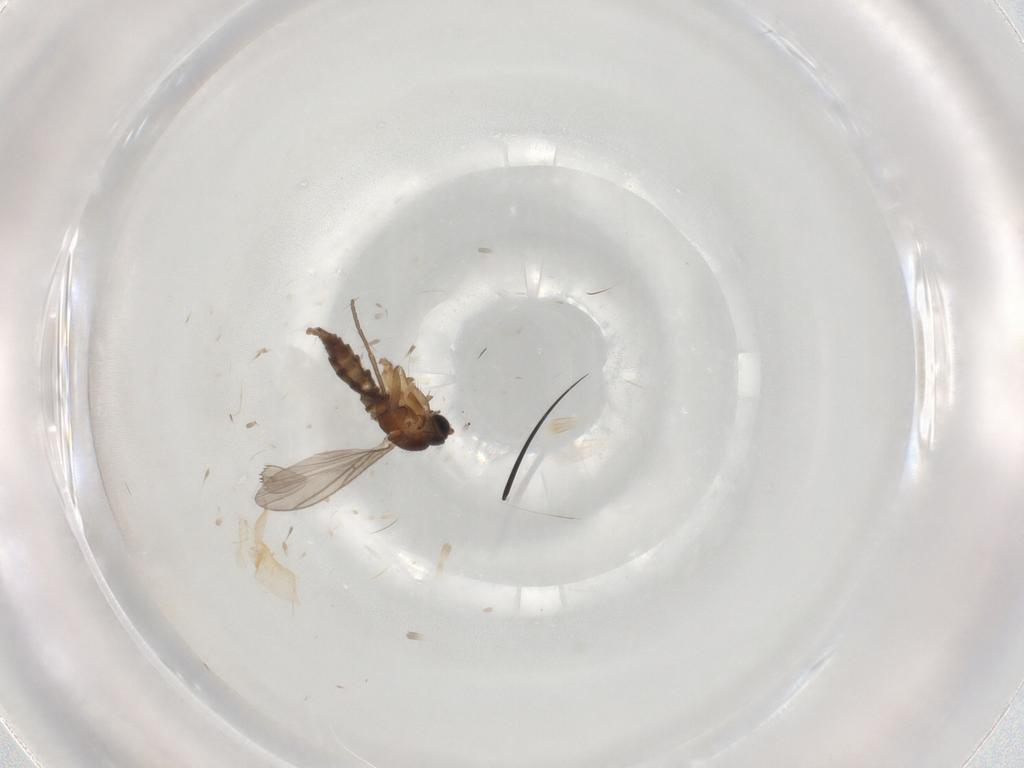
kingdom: Animalia
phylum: Arthropoda
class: Insecta
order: Diptera
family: Sciaridae
